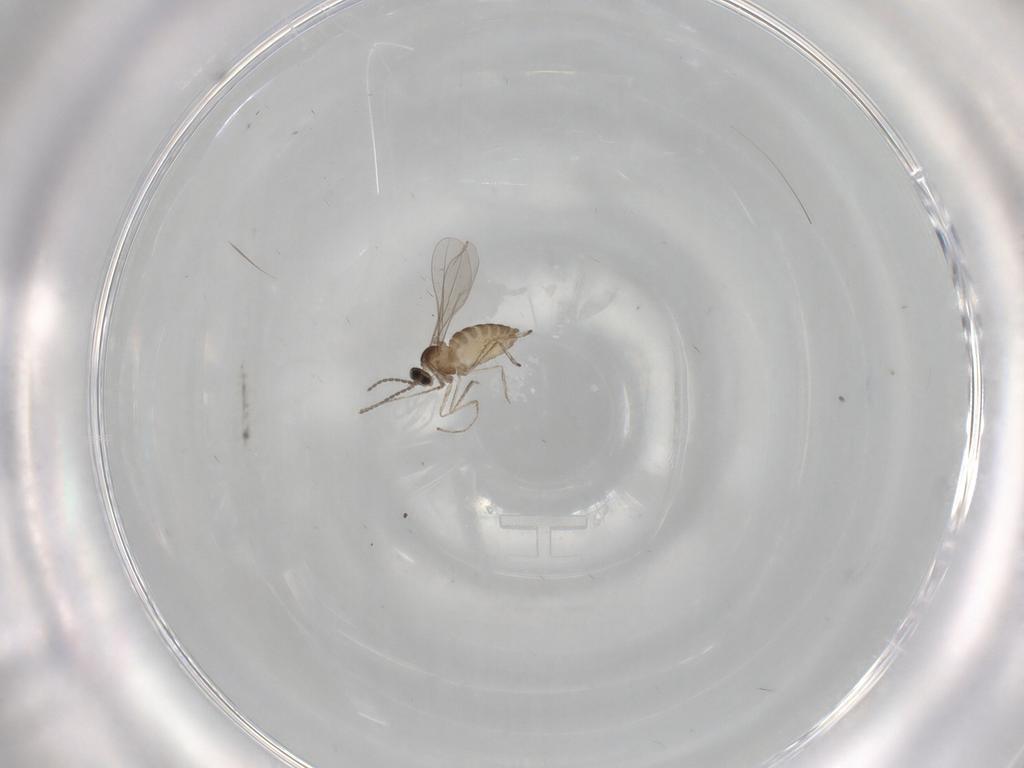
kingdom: Animalia
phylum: Arthropoda
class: Insecta
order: Diptera
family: Cecidomyiidae
